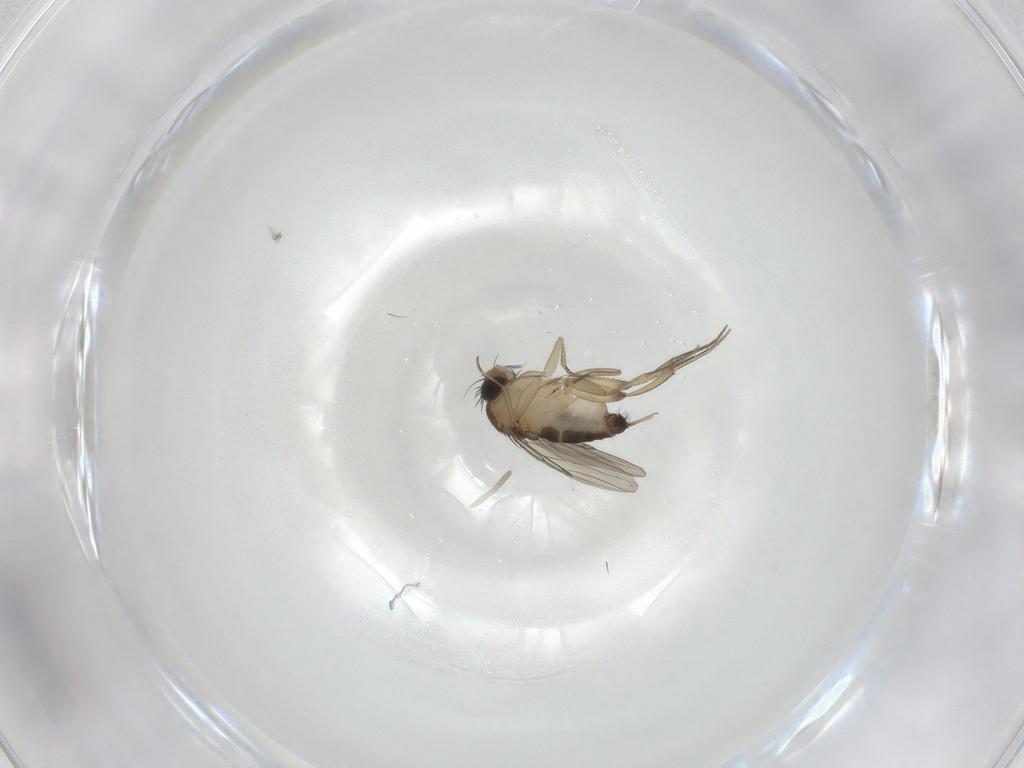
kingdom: Animalia
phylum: Arthropoda
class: Insecta
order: Diptera
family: Phoridae
